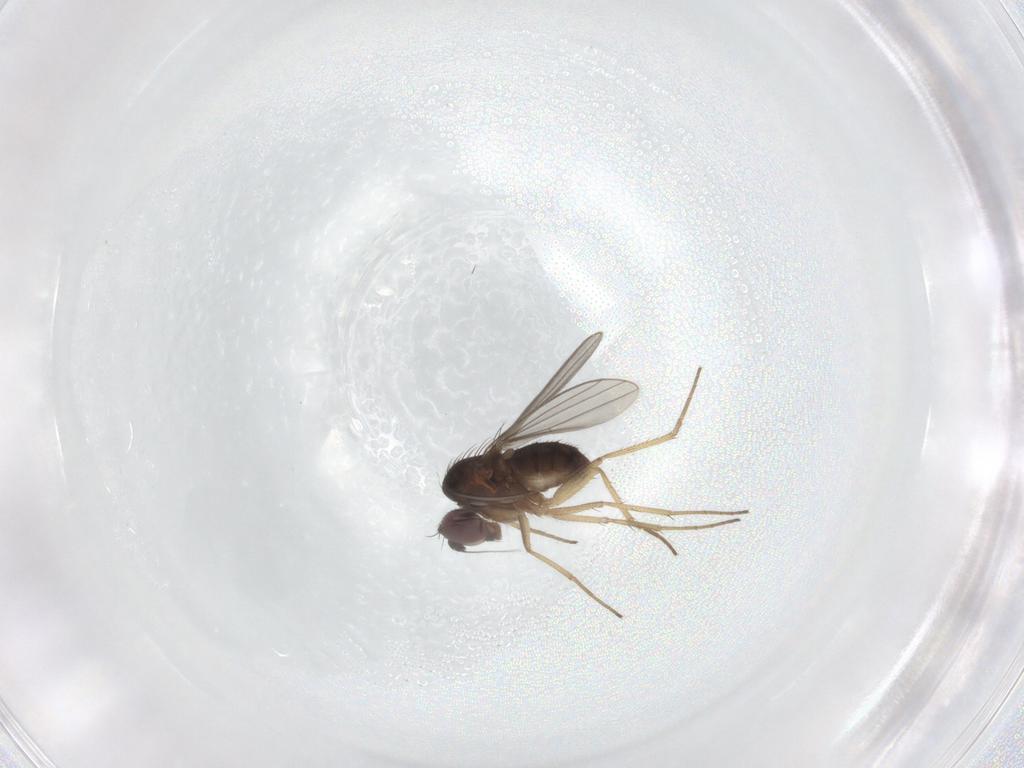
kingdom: Animalia
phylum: Arthropoda
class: Insecta
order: Diptera
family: Dolichopodidae
